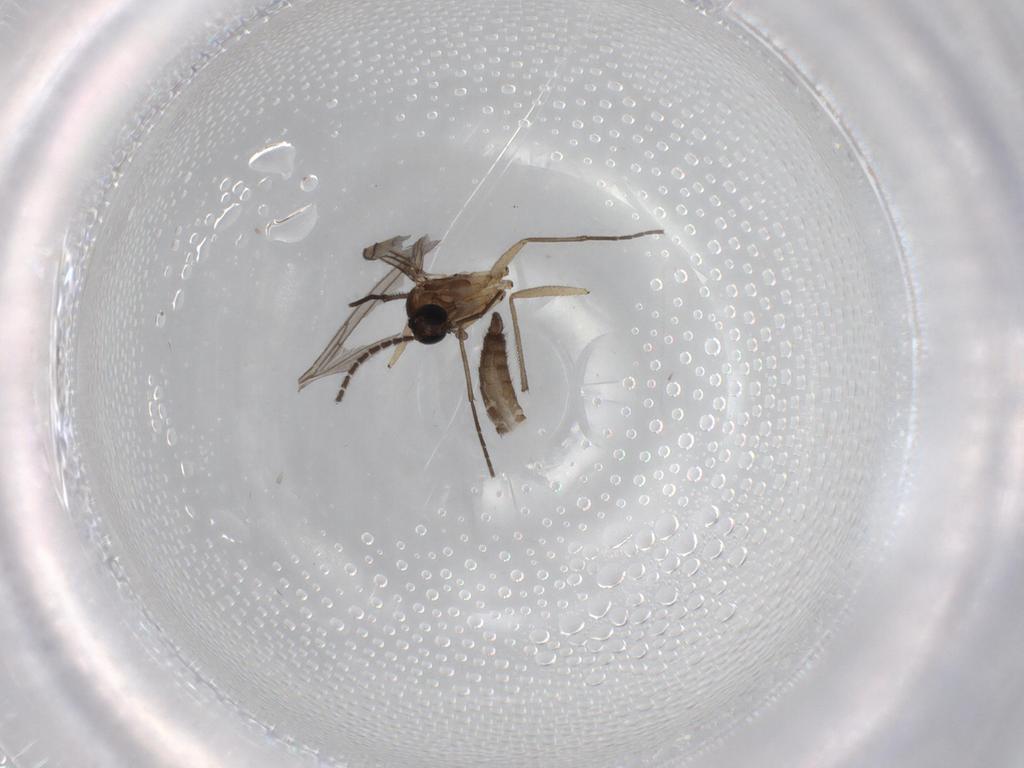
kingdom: Animalia
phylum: Arthropoda
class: Insecta
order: Diptera
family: Sciaridae
